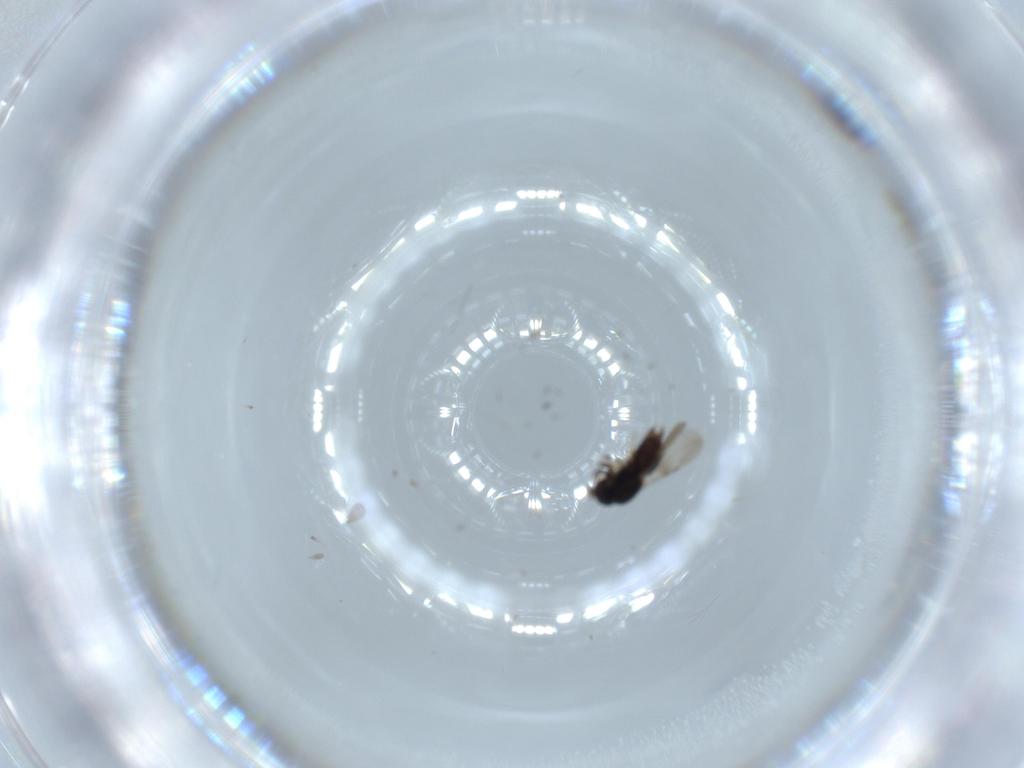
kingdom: Animalia
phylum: Arthropoda
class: Insecta
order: Hymenoptera
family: Ceraphronidae
